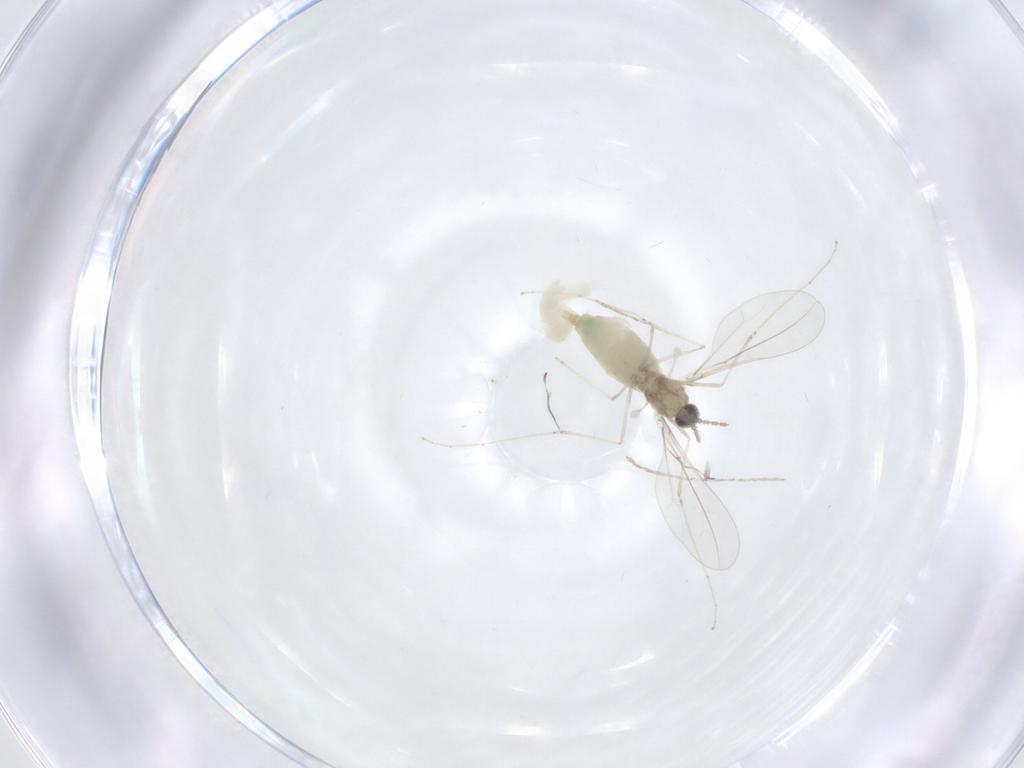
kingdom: Animalia
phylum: Arthropoda
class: Insecta
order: Diptera
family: Cecidomyiidae
